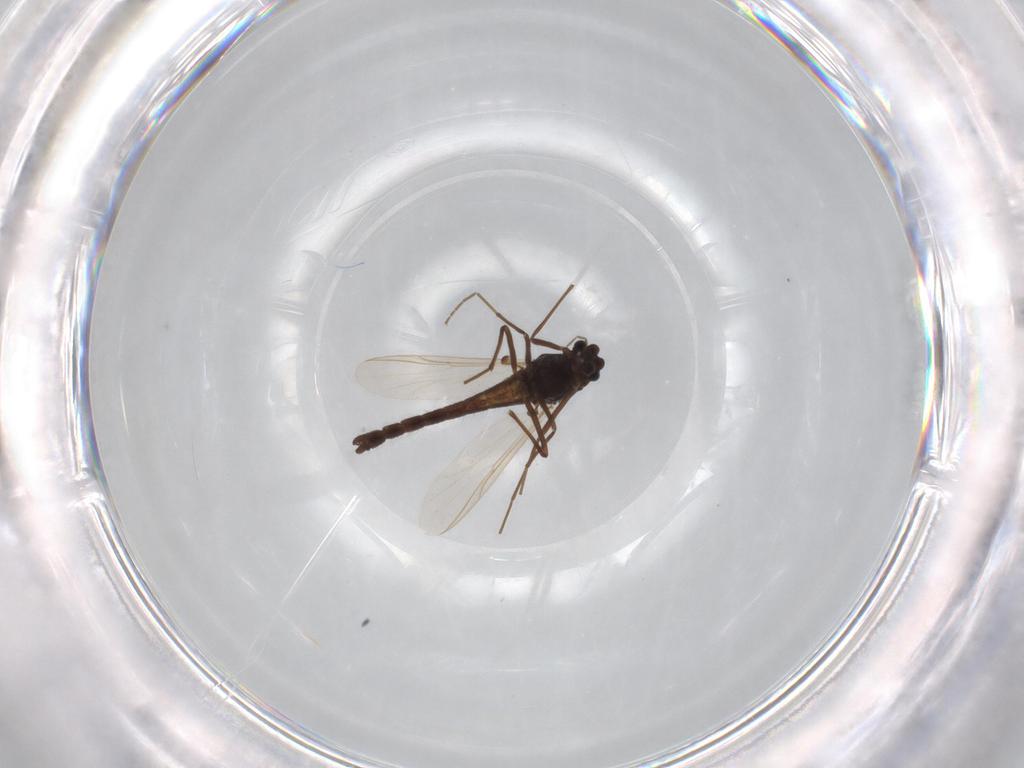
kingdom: Animalia
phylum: Arthropoda
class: Insecta
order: Diptera
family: Chironomidae
